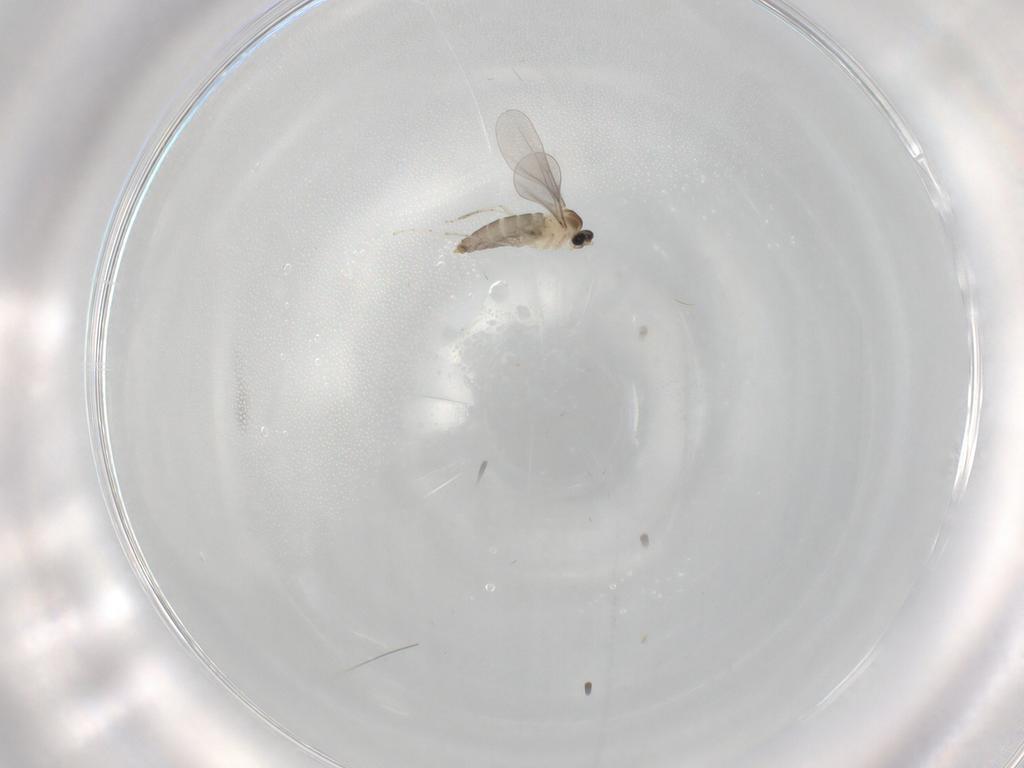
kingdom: Animalia
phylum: Arthropoda
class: Insecta
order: Diptera
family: Cecidomyiidae
